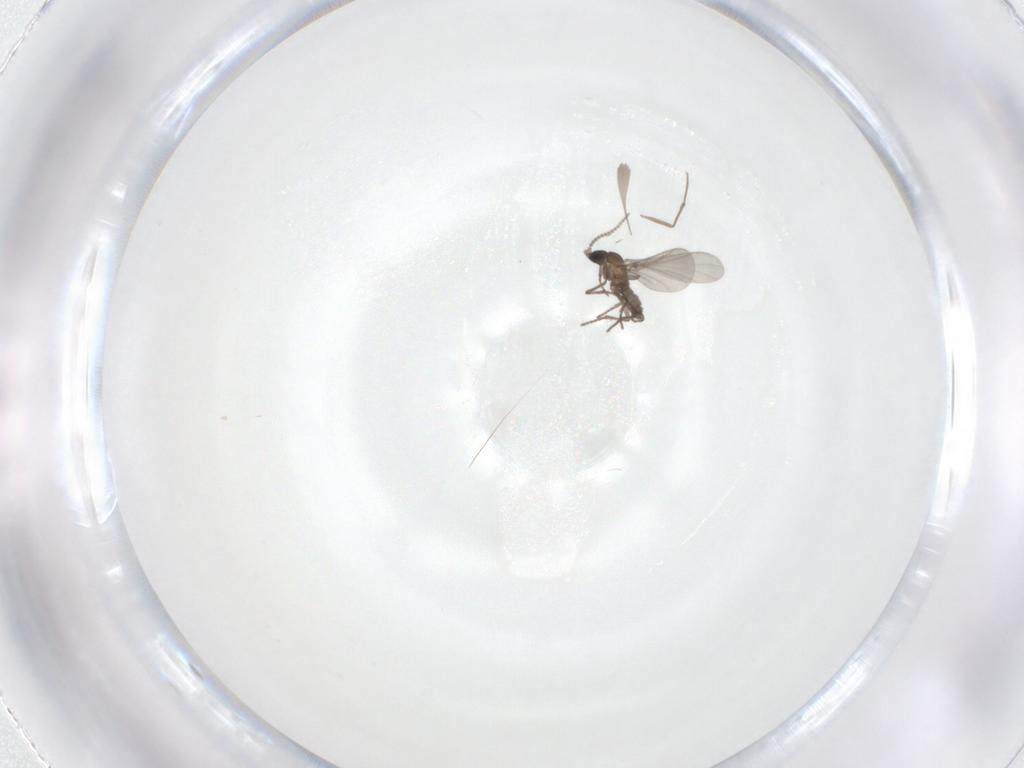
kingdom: Animalia
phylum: Arthropoda
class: Insecta
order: Diptera
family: Sciaridae
